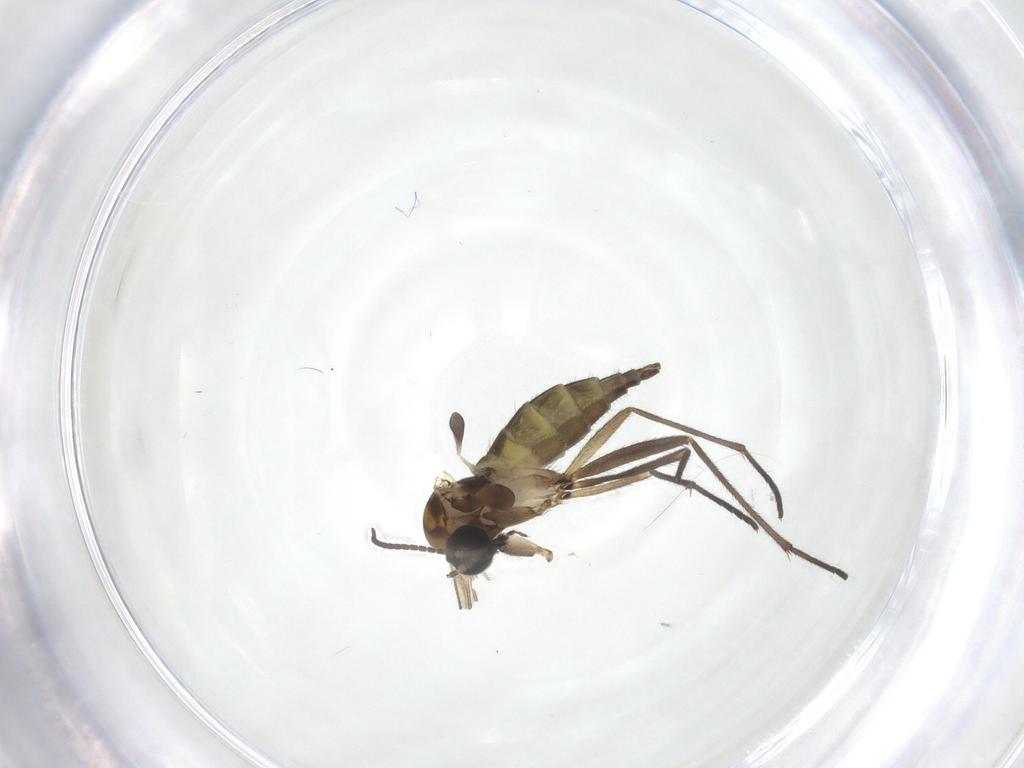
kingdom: Animalia
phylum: Arthropoda
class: Insecta
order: Diptera
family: Sciaridae
